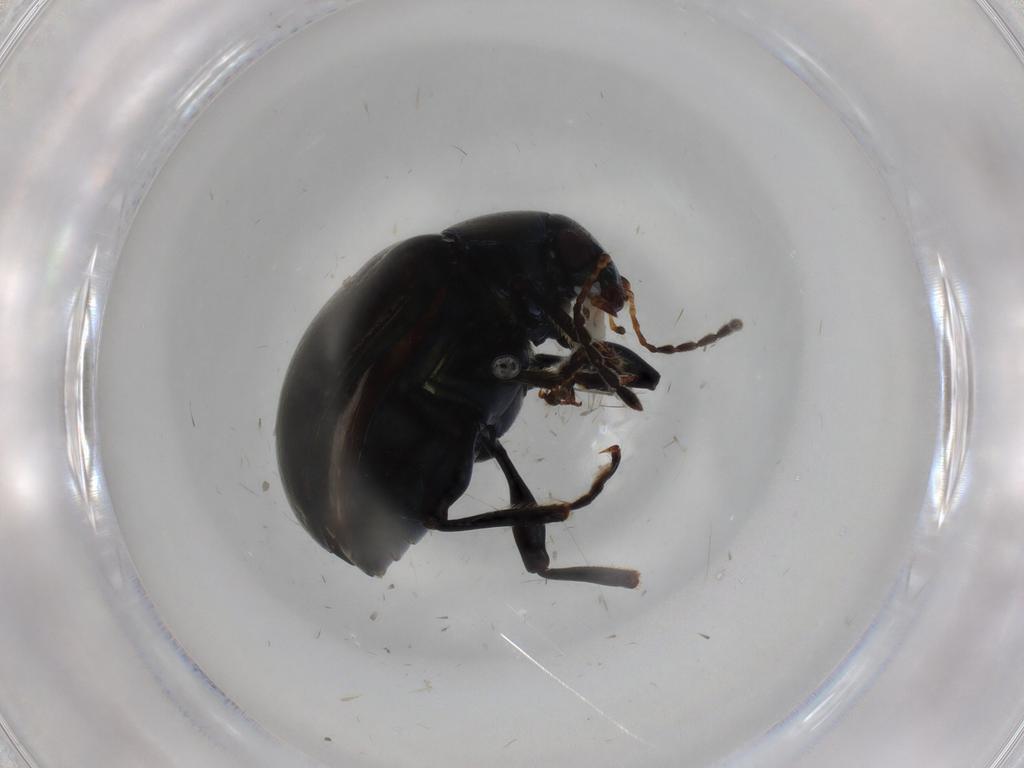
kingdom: Animalia
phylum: Arthropoda
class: Insecta
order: Coleoptera
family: Chrysomelidae
